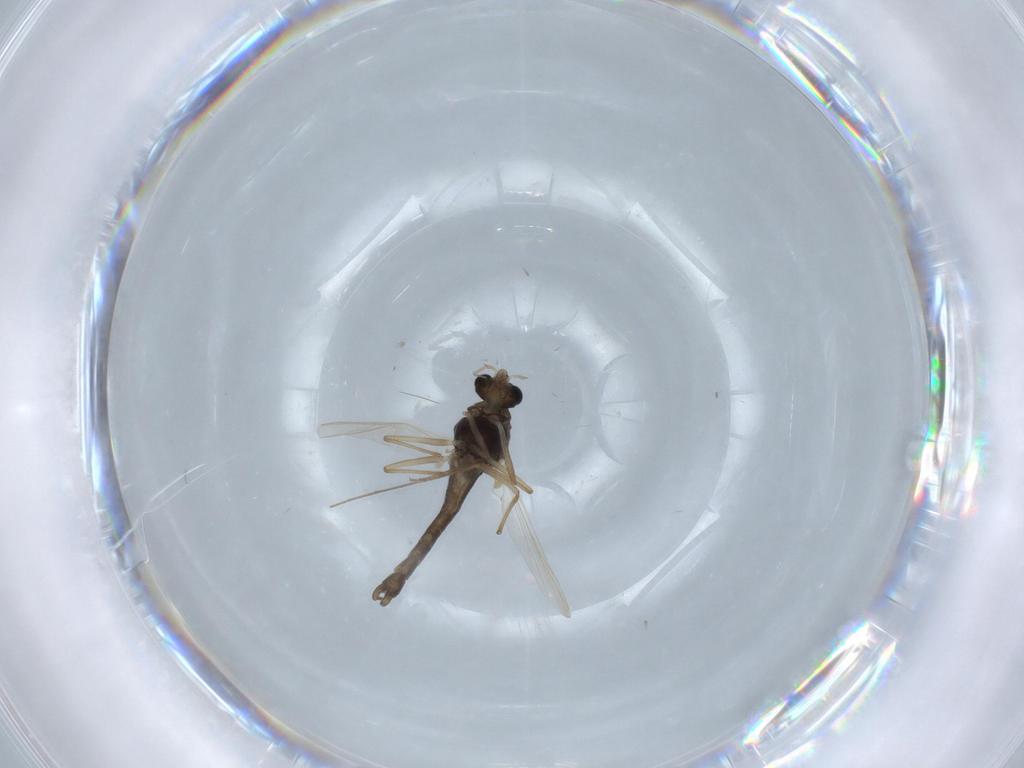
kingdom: Animalia
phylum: Arthropoda
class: Insecta
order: Diptera
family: Chironomidae
